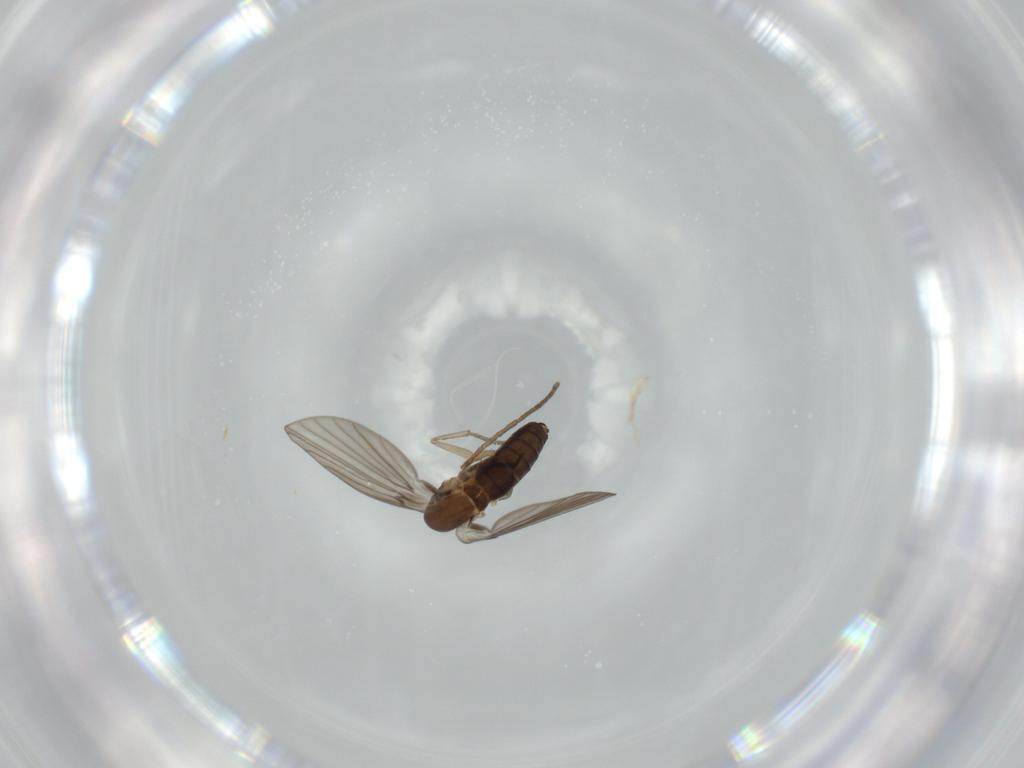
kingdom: Animalia
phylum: Arthropoda
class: Insecta
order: Diptera
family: Psychodidae
